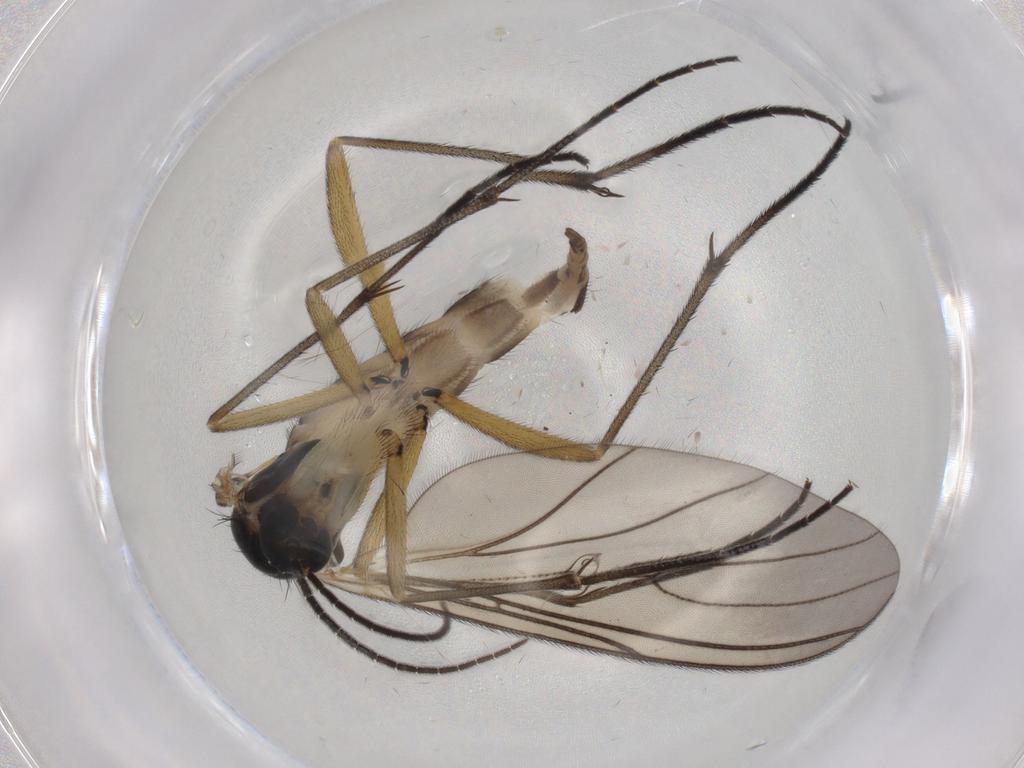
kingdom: Animalia
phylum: Arthropoda
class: Insecta
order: Diptera
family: Sciaridae
